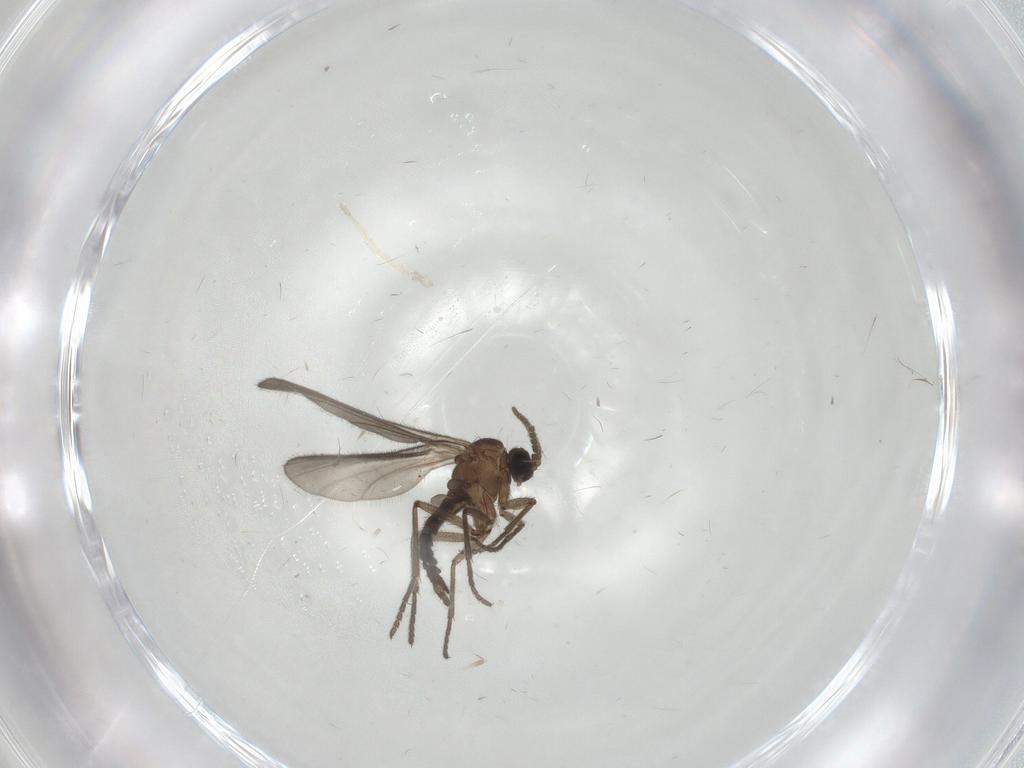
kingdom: Animalia
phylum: Arthropoda
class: Insecta
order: Diptera
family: Sciaridae
